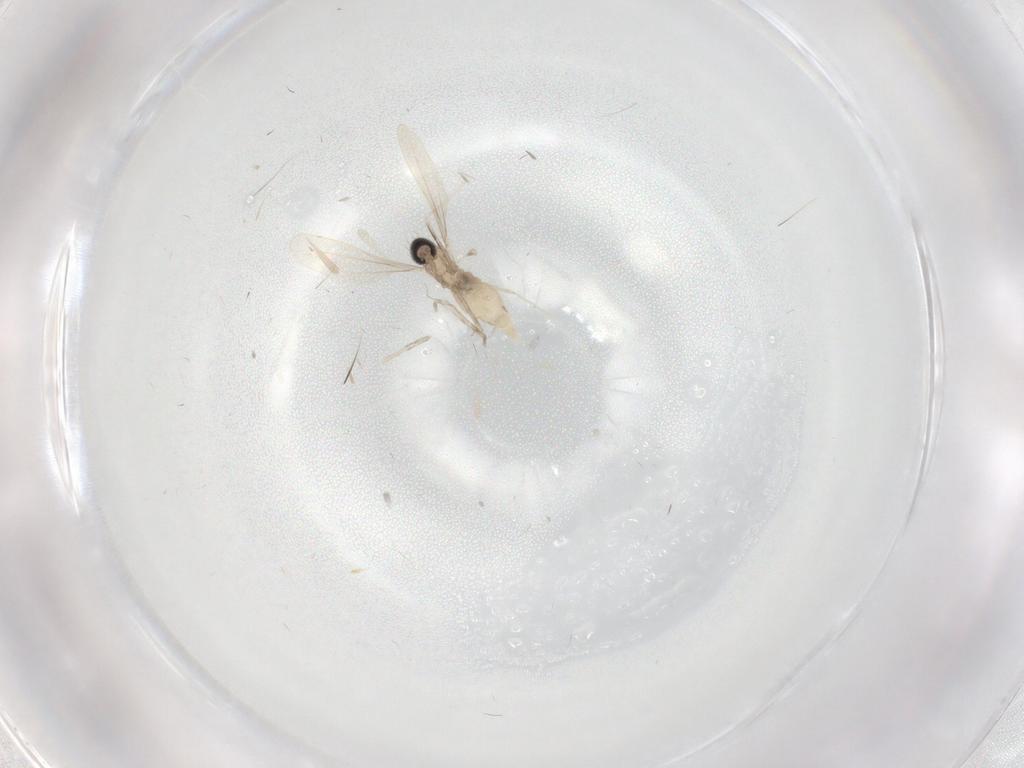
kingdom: Animalia
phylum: Arthropoda
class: Insecta
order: Diptera
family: Cecidomyiidae
